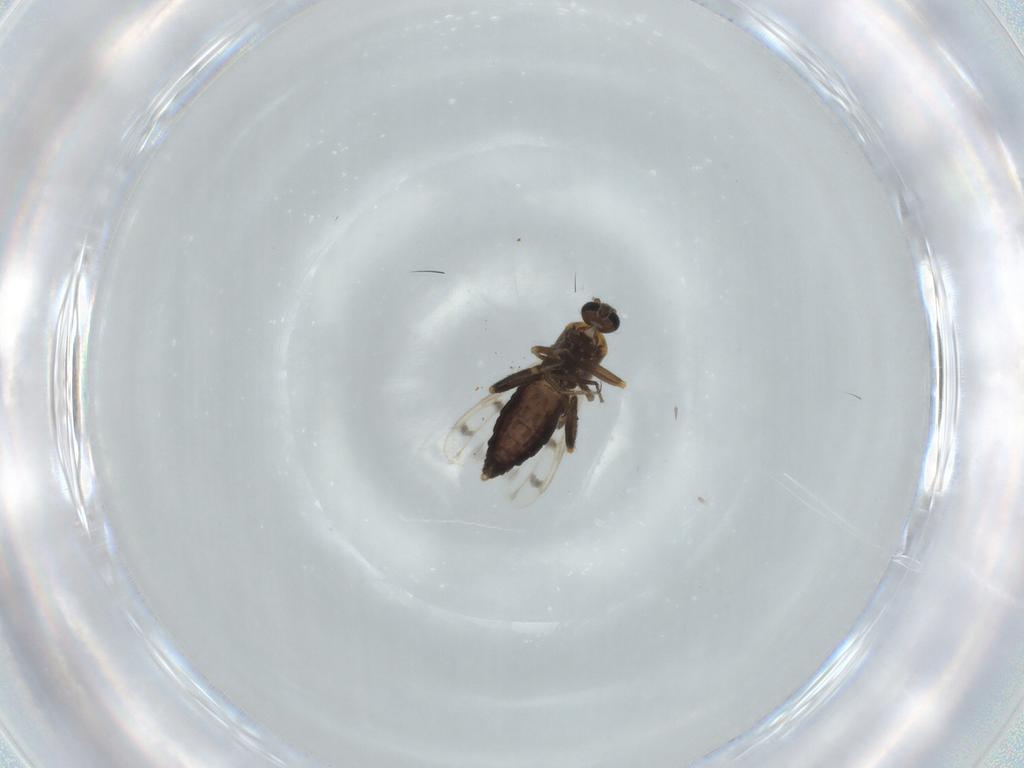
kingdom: Animalia
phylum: Arthropoda
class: Insecta
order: Diptera
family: Ceratopogonidae
